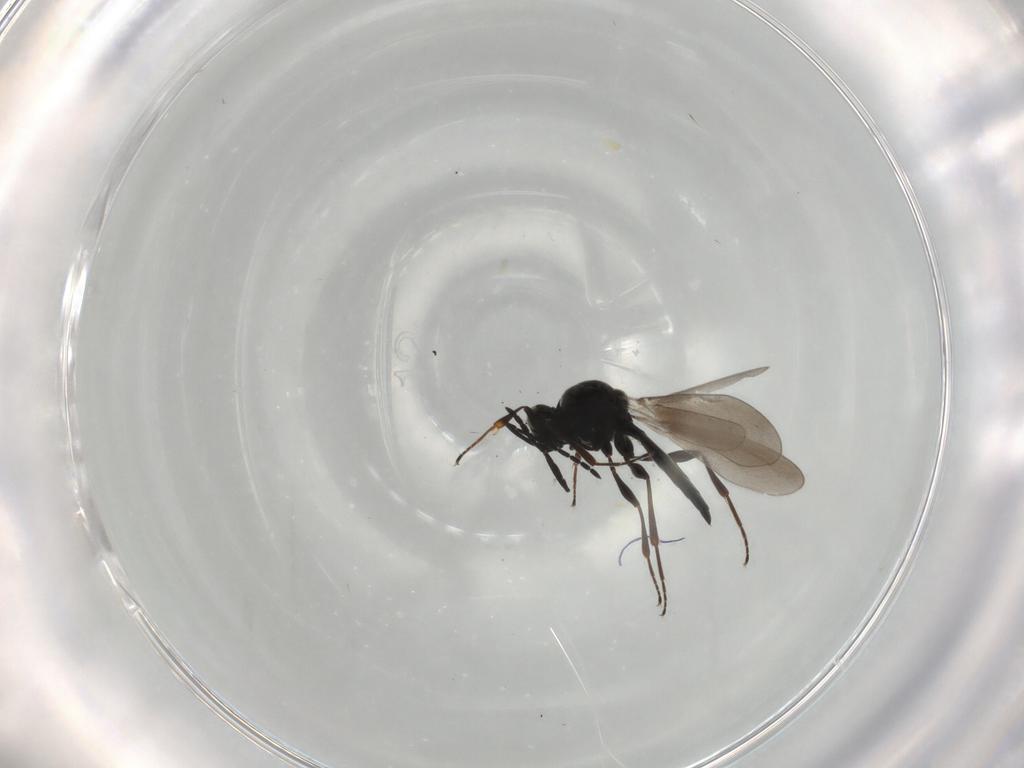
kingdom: Animalia
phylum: Arthropoda
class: Insecta
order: Hymenoptera
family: Platygastridae
